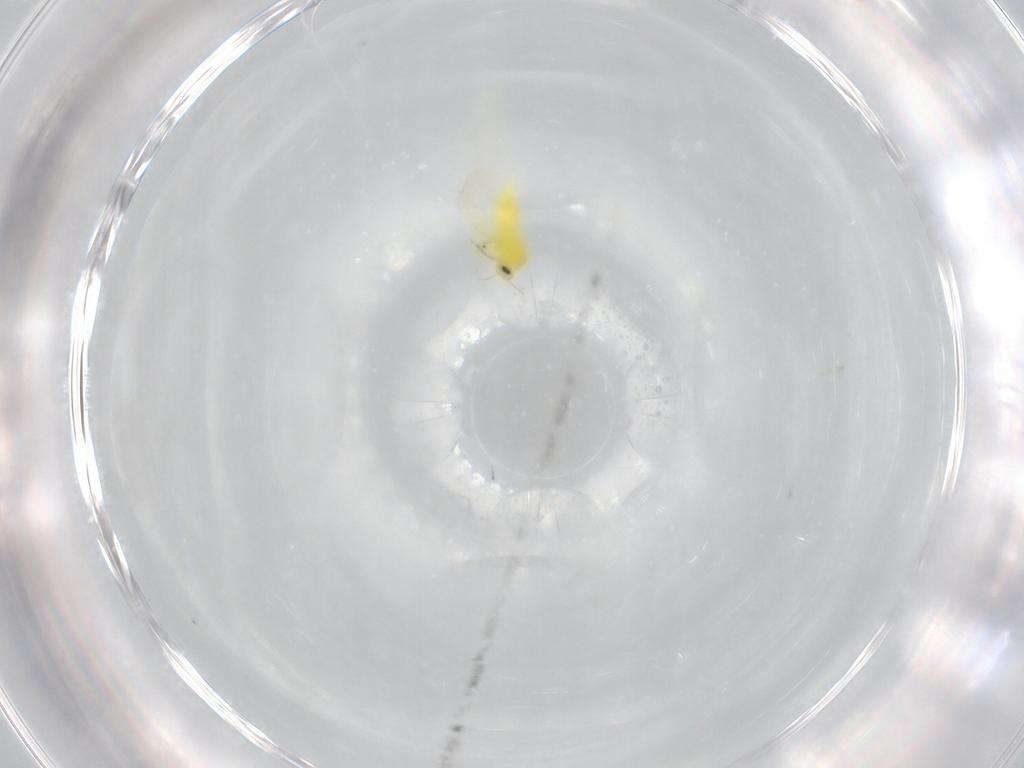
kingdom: Animalia
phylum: Arthropoda
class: Insecta
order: Hemiptera
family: Aleyrodidae
